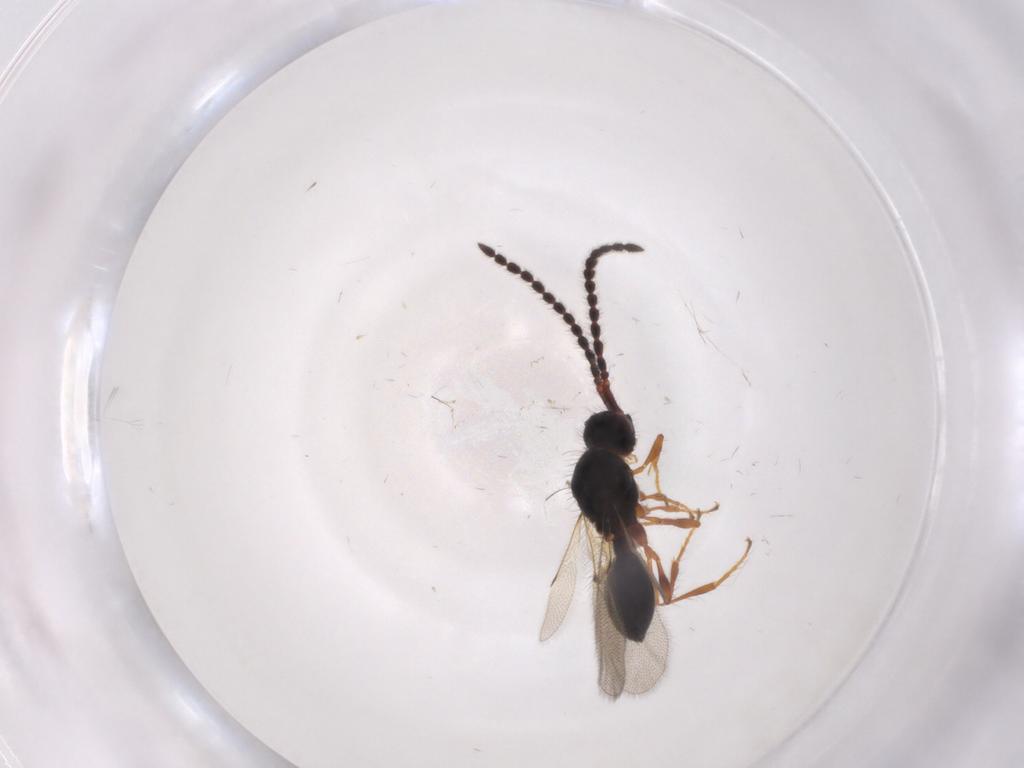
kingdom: Animalia
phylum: Arthropoda
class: Insecta
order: Hymenoptera
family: Diapriidae
